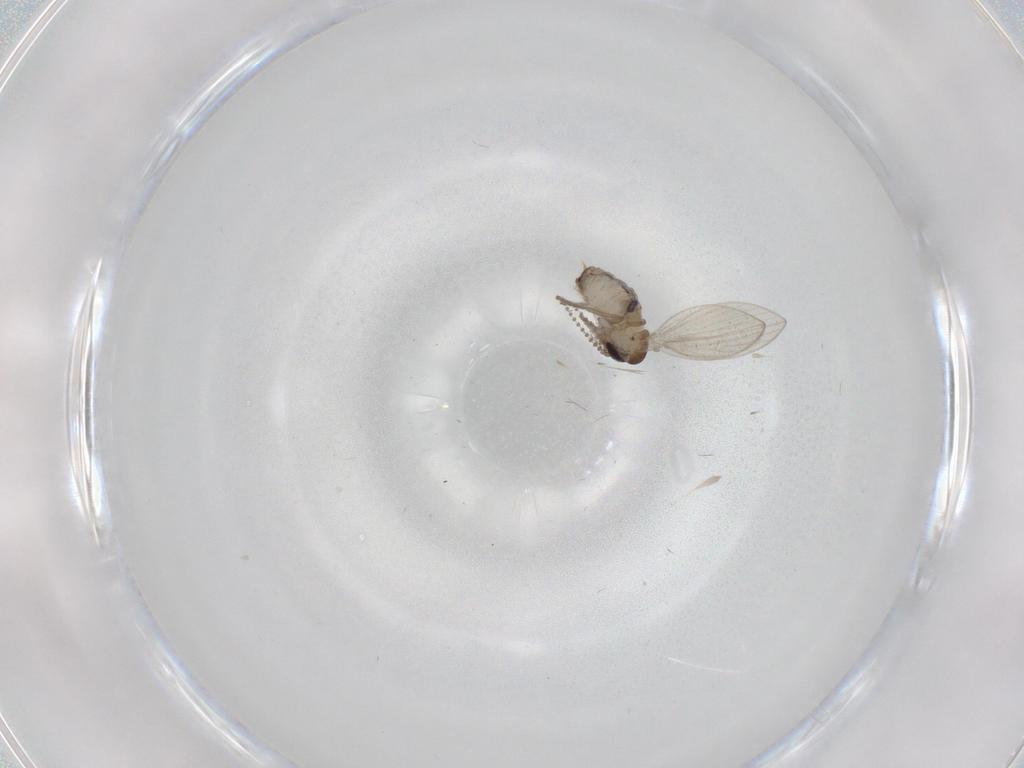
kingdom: Animalia
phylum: Arthropoda
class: Insecta
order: Diptera
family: Psychodidae
